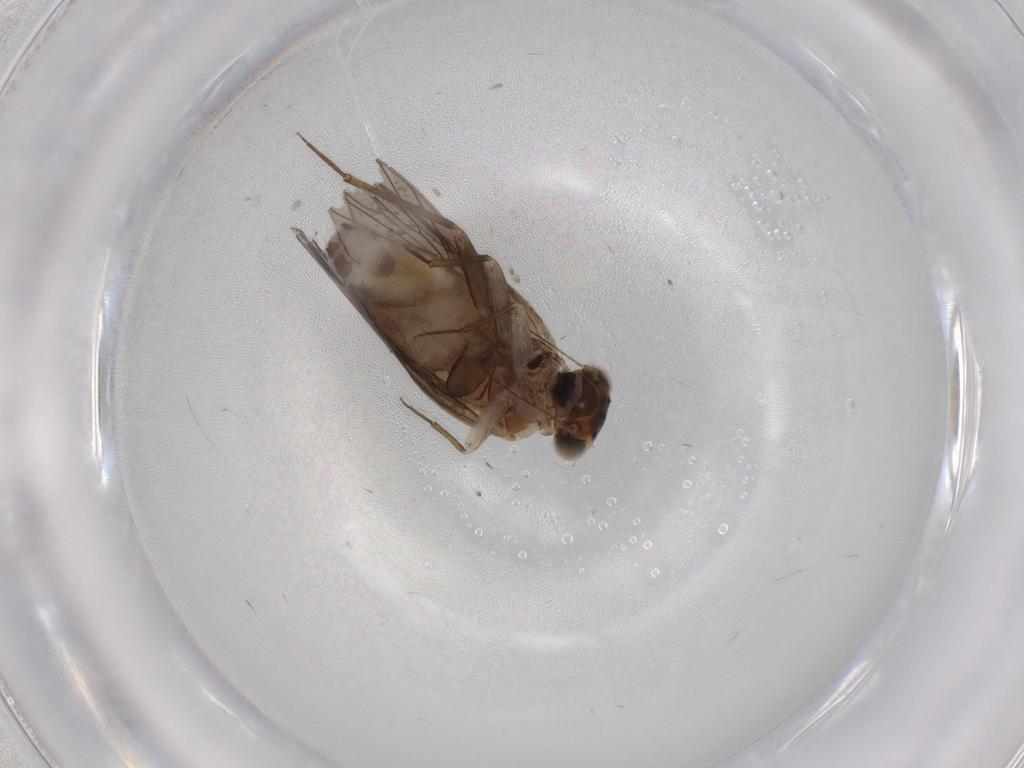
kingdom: Animalia
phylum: Arthropoda
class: Insecta
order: Psocodea
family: Lepidopsocidae
